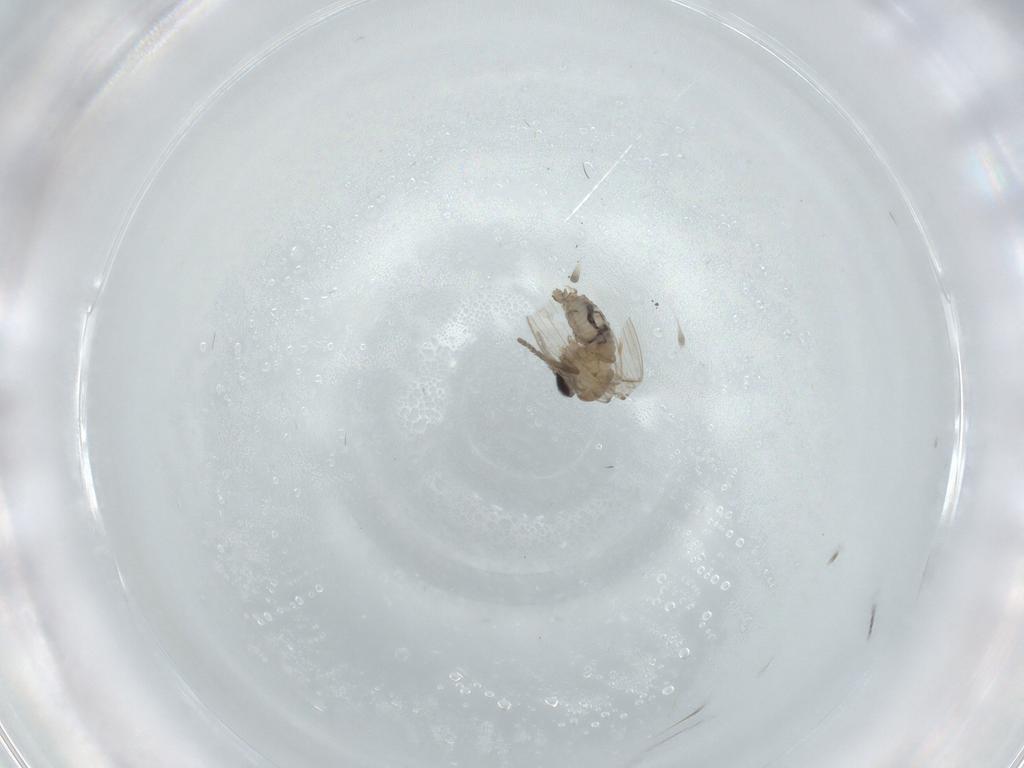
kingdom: Animalia
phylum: Arthropoda
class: Insecta
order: Diptera
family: Psychodidae
